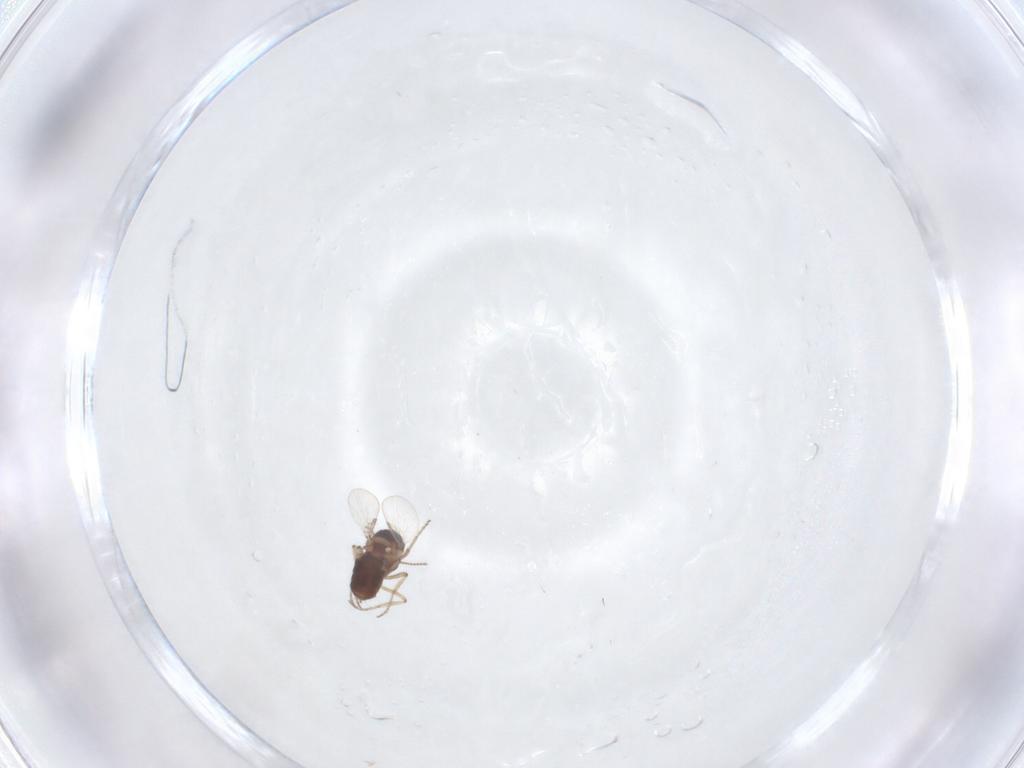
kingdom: Animalia
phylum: Arthropoda
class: Insecta
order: Diptera
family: Ceratopogonidae
